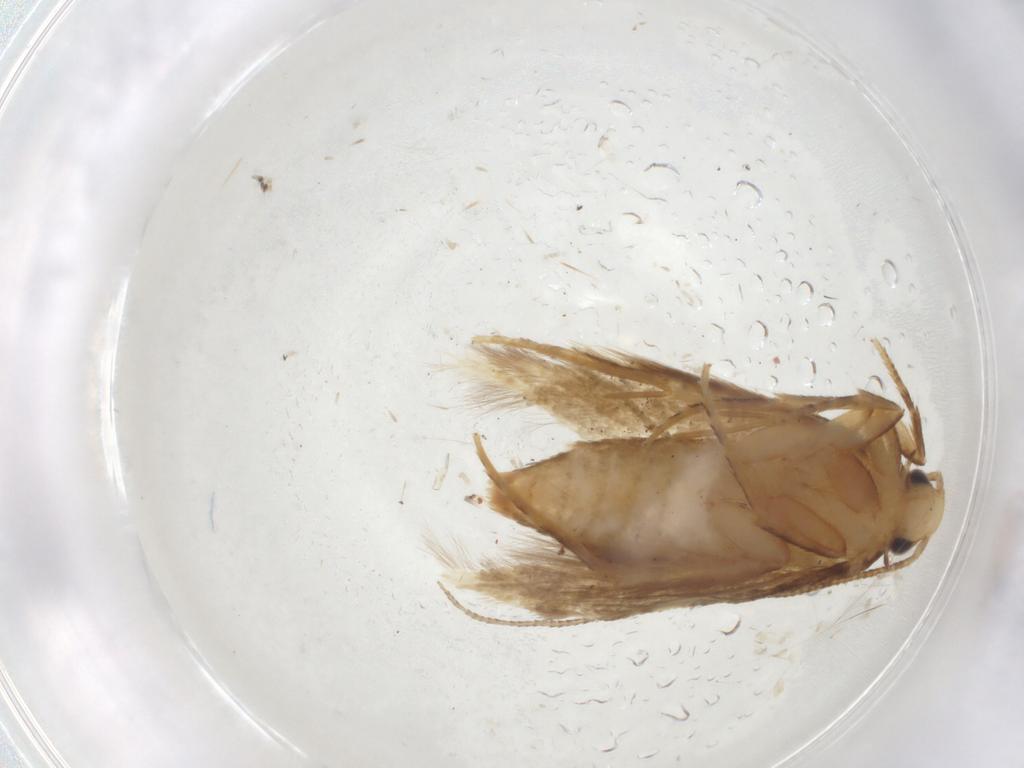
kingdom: Animalia
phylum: Arthropoda
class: Insecta
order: Lepidoptera
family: Tineidae
